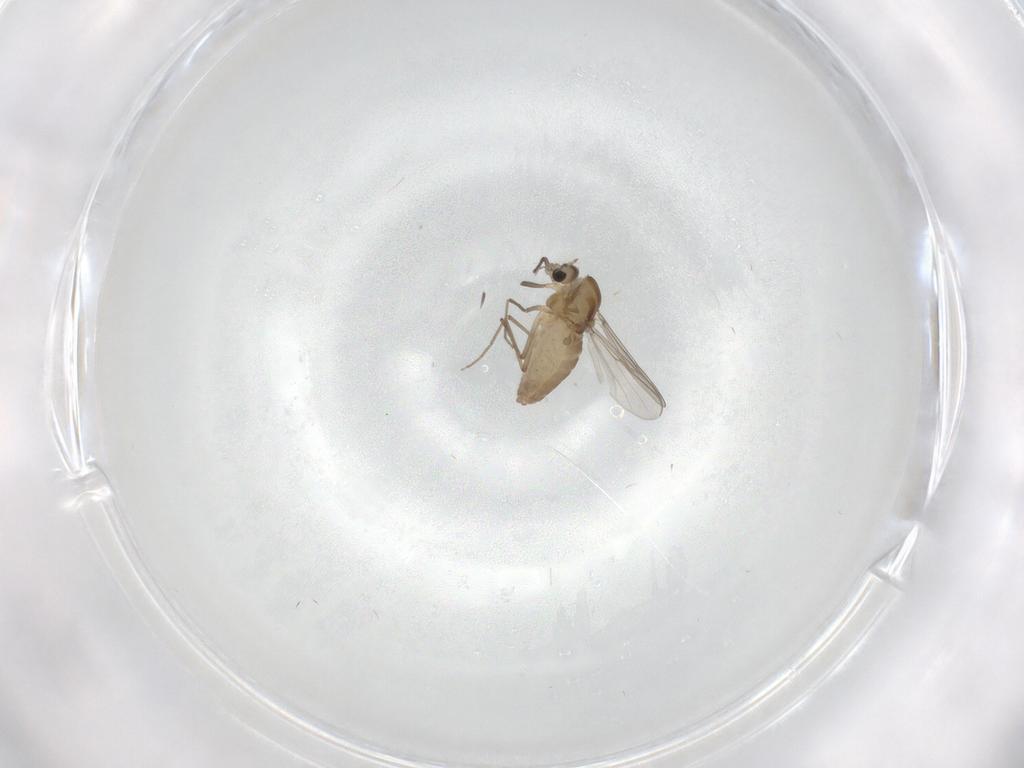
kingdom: Animalia
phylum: Arthropoda
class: Insecta
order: Diptera
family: Chironomidae
